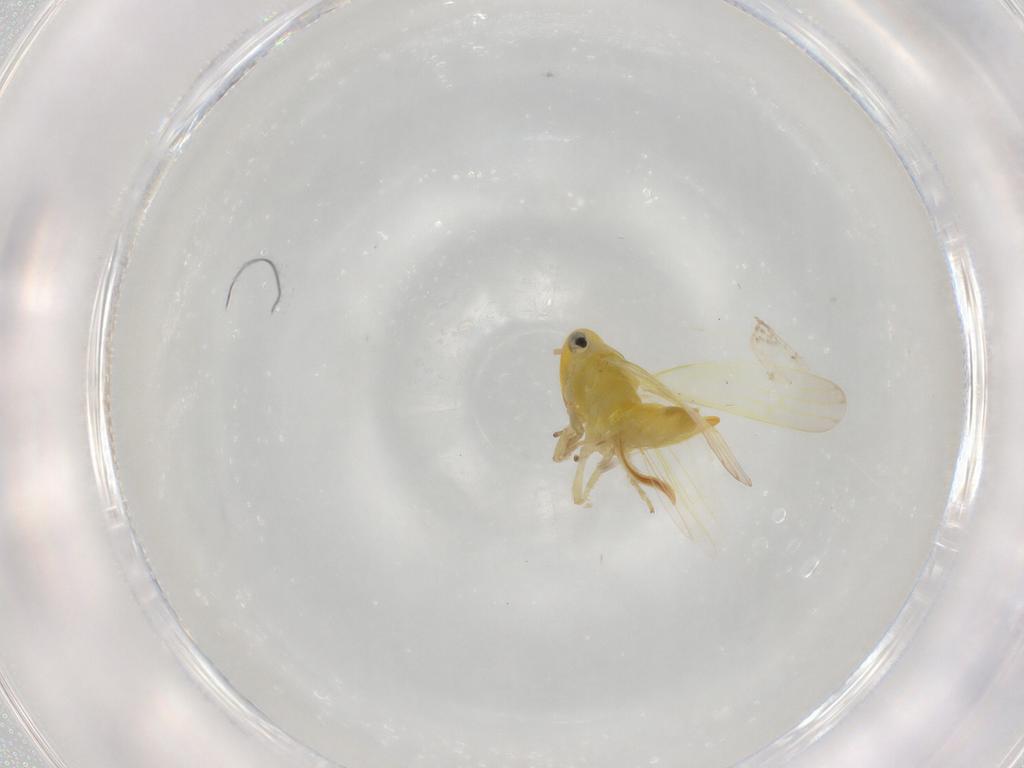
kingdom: Animalia
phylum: Arthropoda
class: Insecta
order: Hemiptera
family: Cicadellidae
